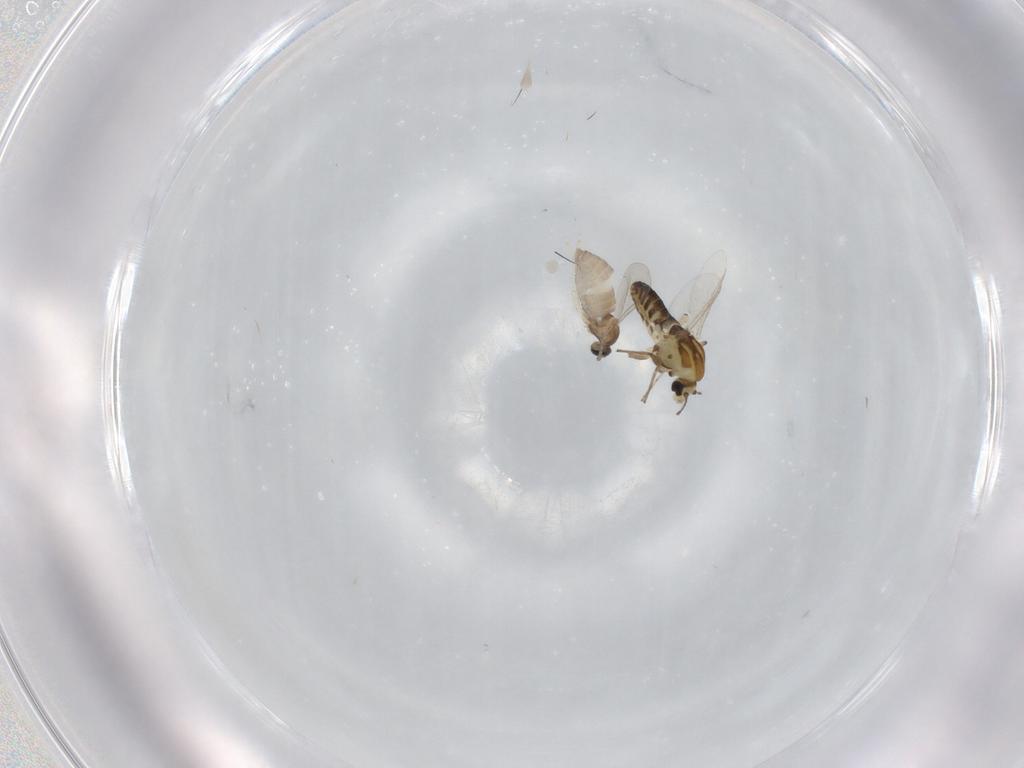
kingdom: Animalia
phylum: Arthropoda
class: Insecta
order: Diptera
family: Chironomidae
